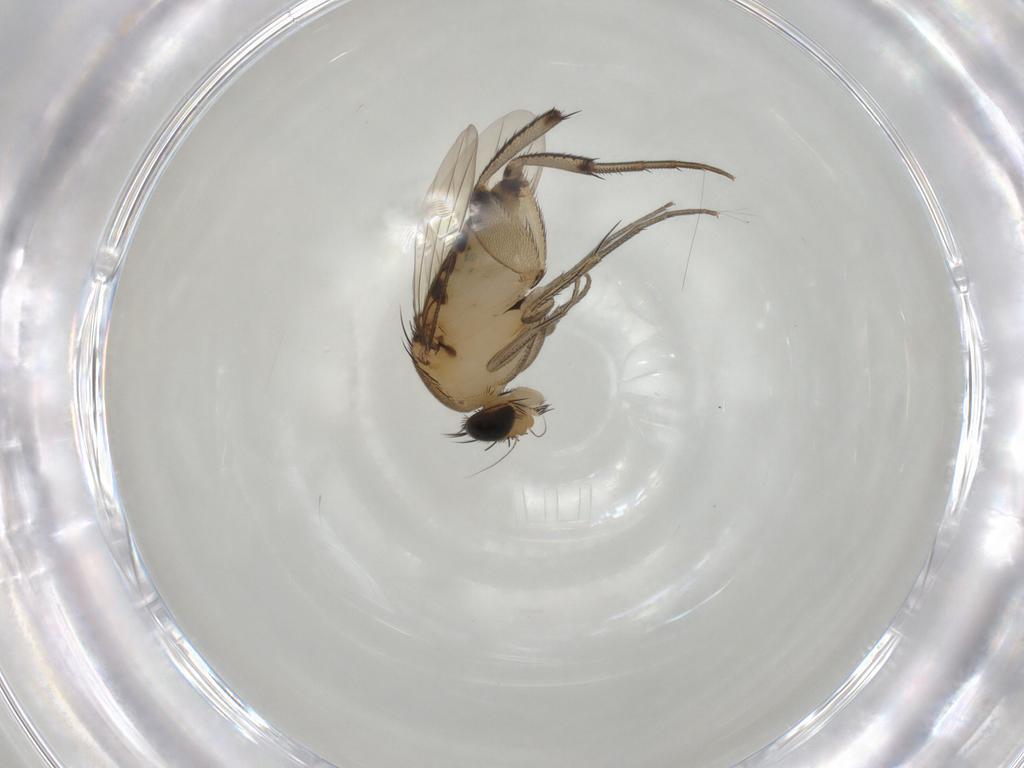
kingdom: Animalia
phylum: Arthropoda
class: Insecta
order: Diptera
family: Phoridae
